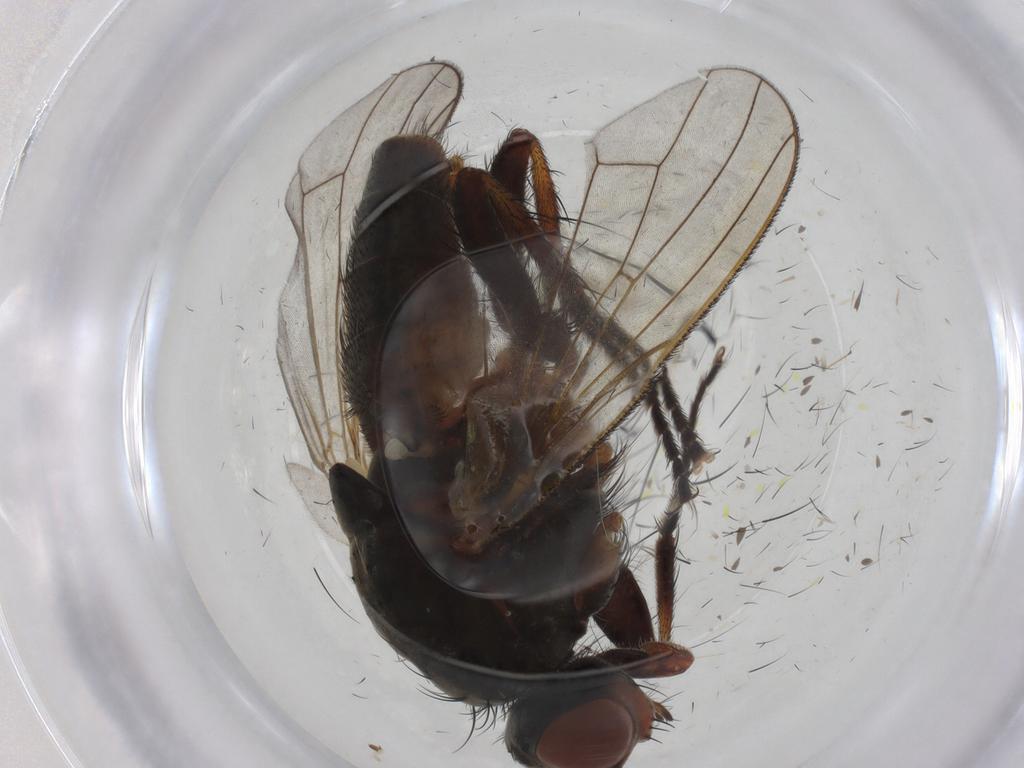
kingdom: Animalia
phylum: Arthropoda
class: Insecta
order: Diptera
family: Anthomyiidae
